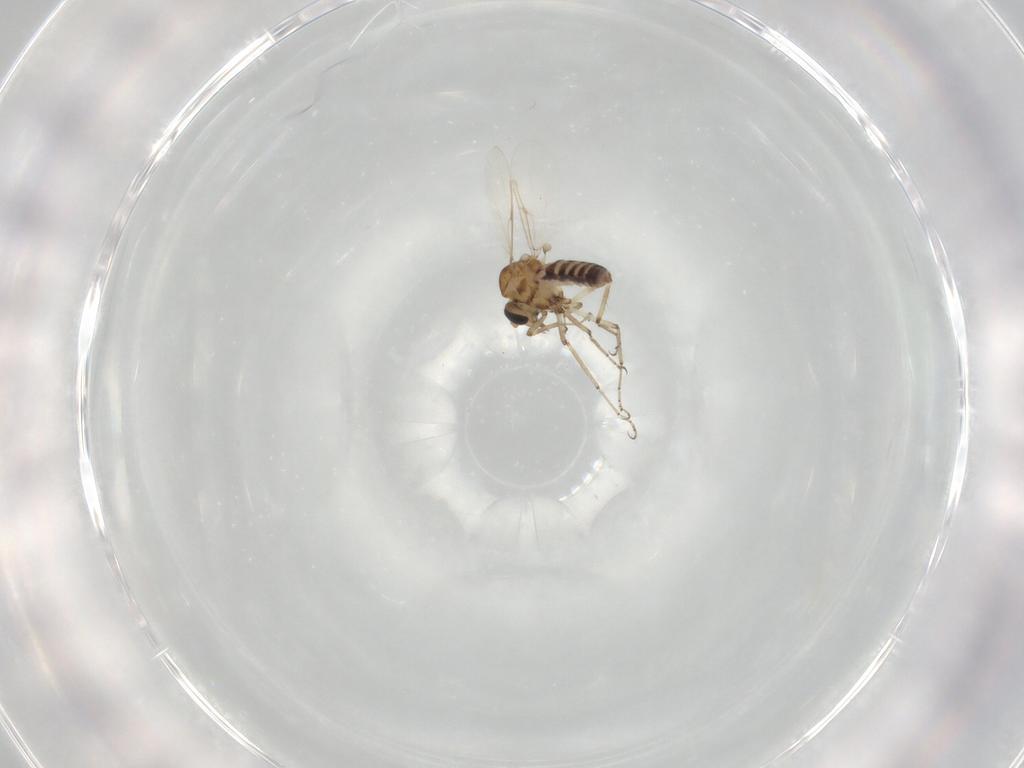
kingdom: Animalia
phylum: Arthropoda
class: Insecta
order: Diptera
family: Ceratopogonidae
